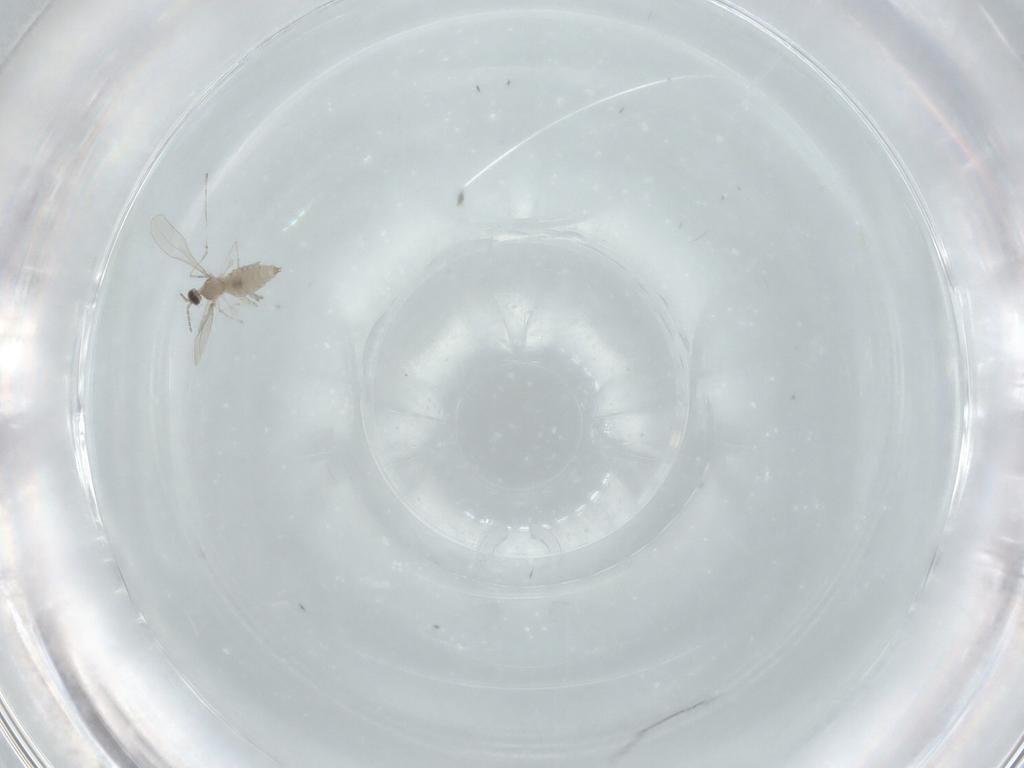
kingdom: Animalia
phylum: Arthropoda
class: Insecta
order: Diptera
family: Cecidomyiidae
